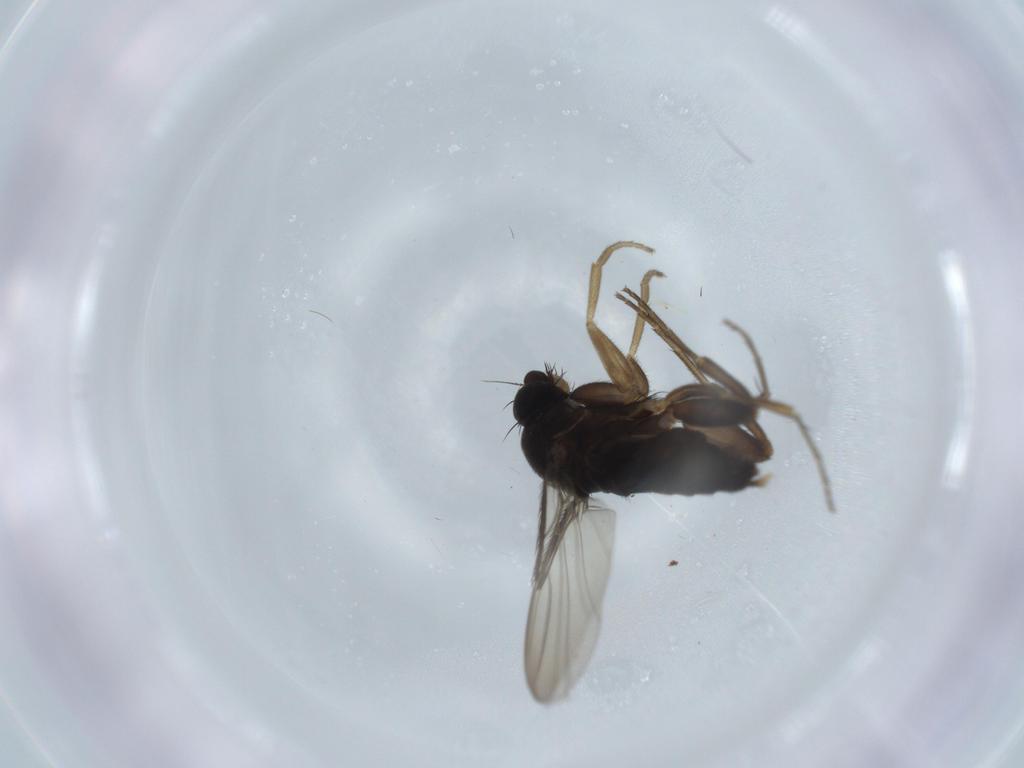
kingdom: Animalia
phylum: Arthropoda
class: Insecta
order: Diptera
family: Phoridae
